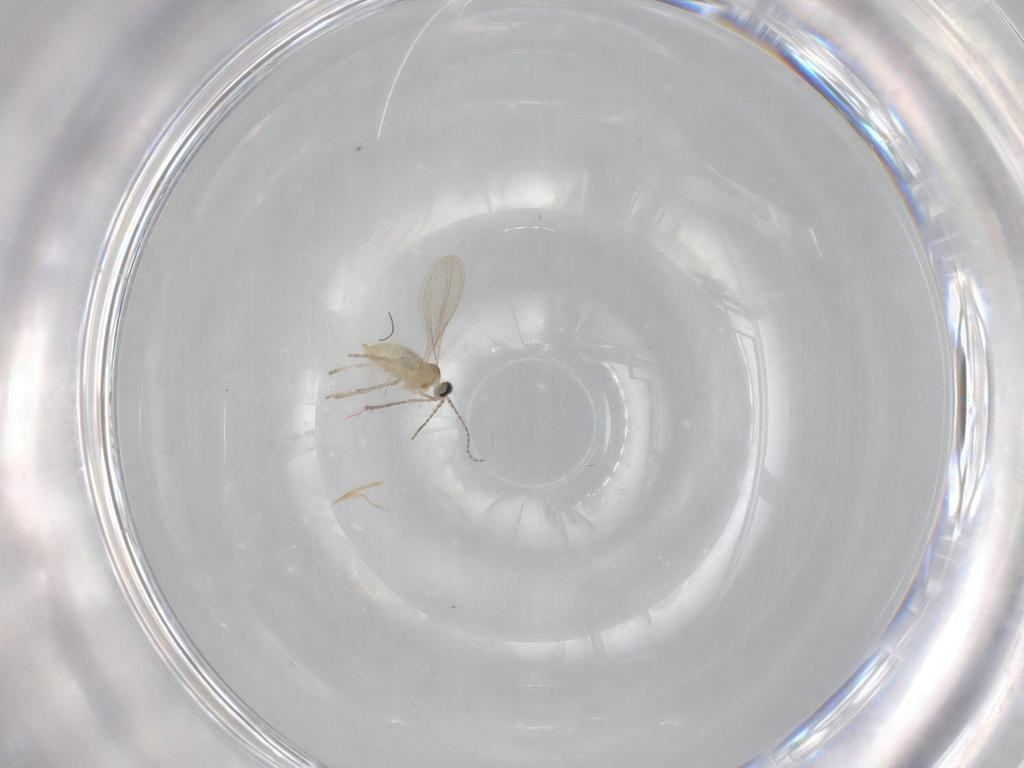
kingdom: Animalia
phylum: Arthropoda
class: Insecta
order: Diptera
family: Cecidomyiidae
